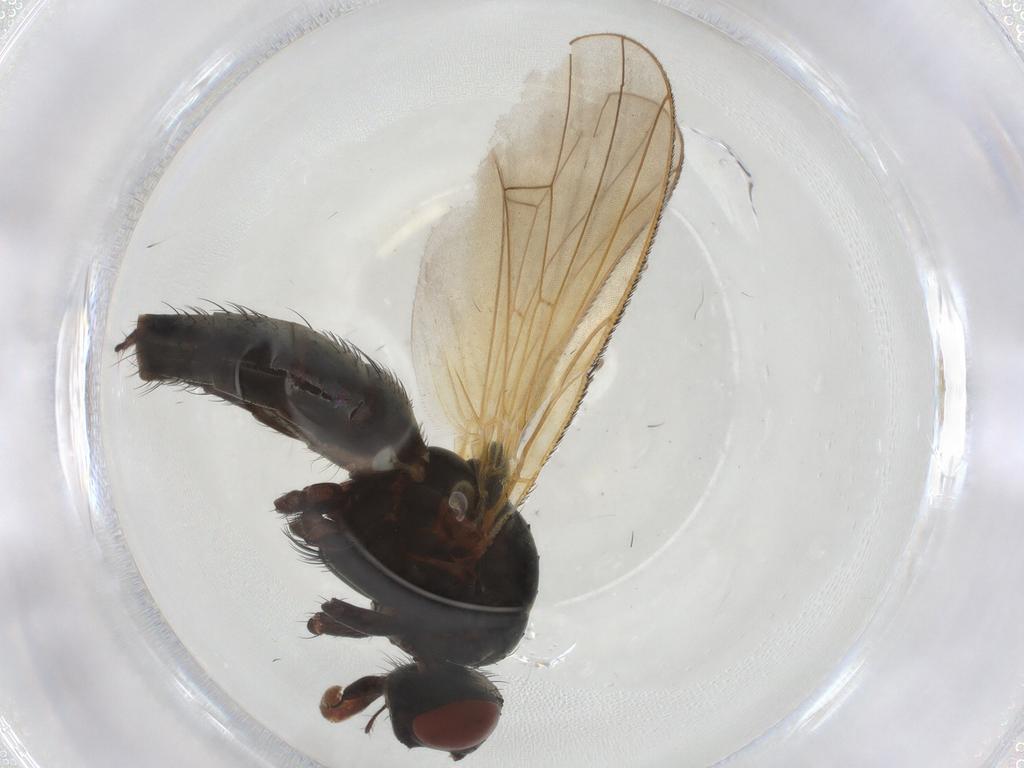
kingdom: Animalia
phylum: Arthropoda
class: Insecta
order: Diptera
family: Anthomyiidae
